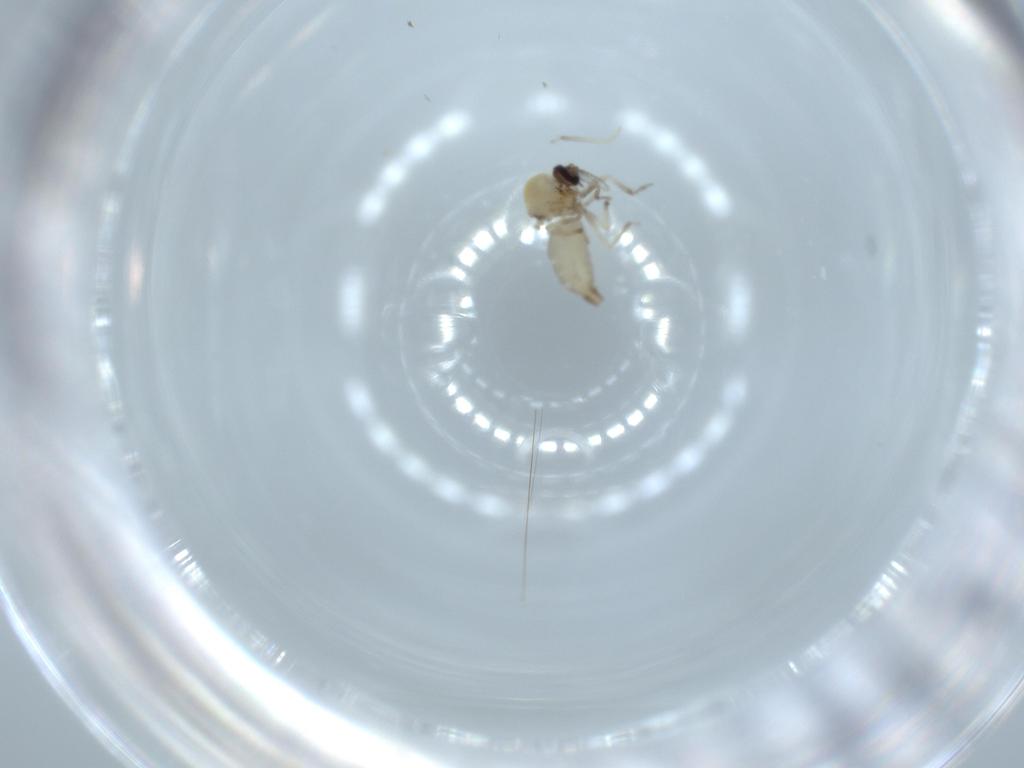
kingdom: Animalia
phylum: Arthropoda
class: Insecta
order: Diptera
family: Ceratopogonidae
